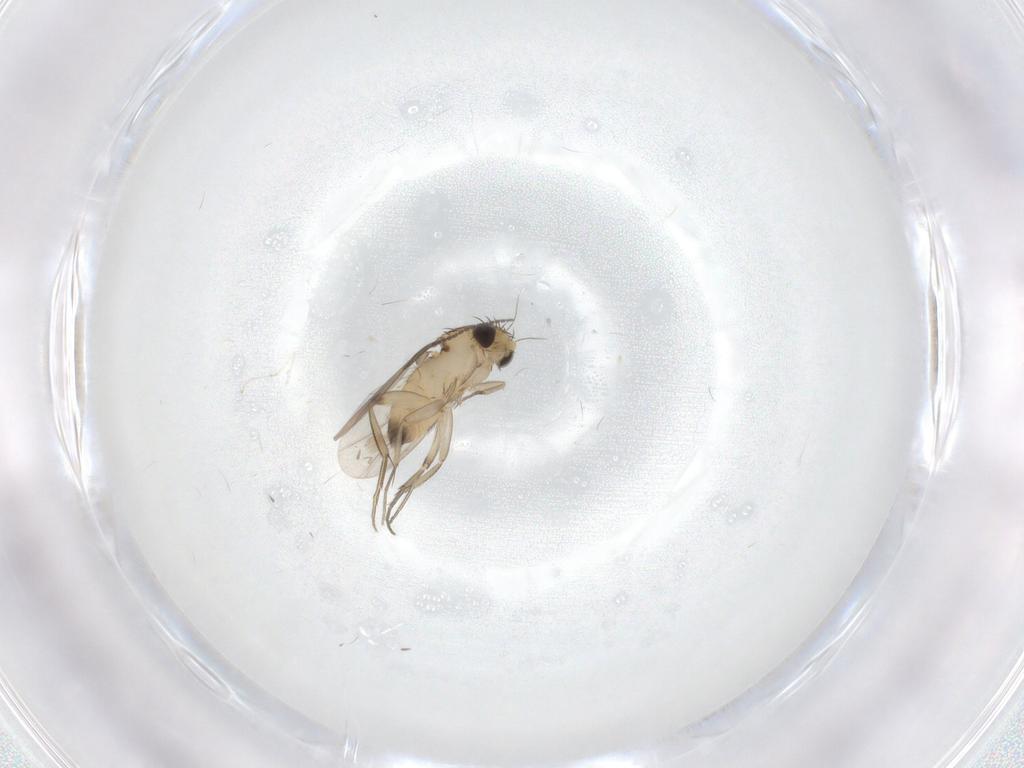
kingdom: Animalia
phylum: Arthropoda
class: Insecta
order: Diptera
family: Phoridae
